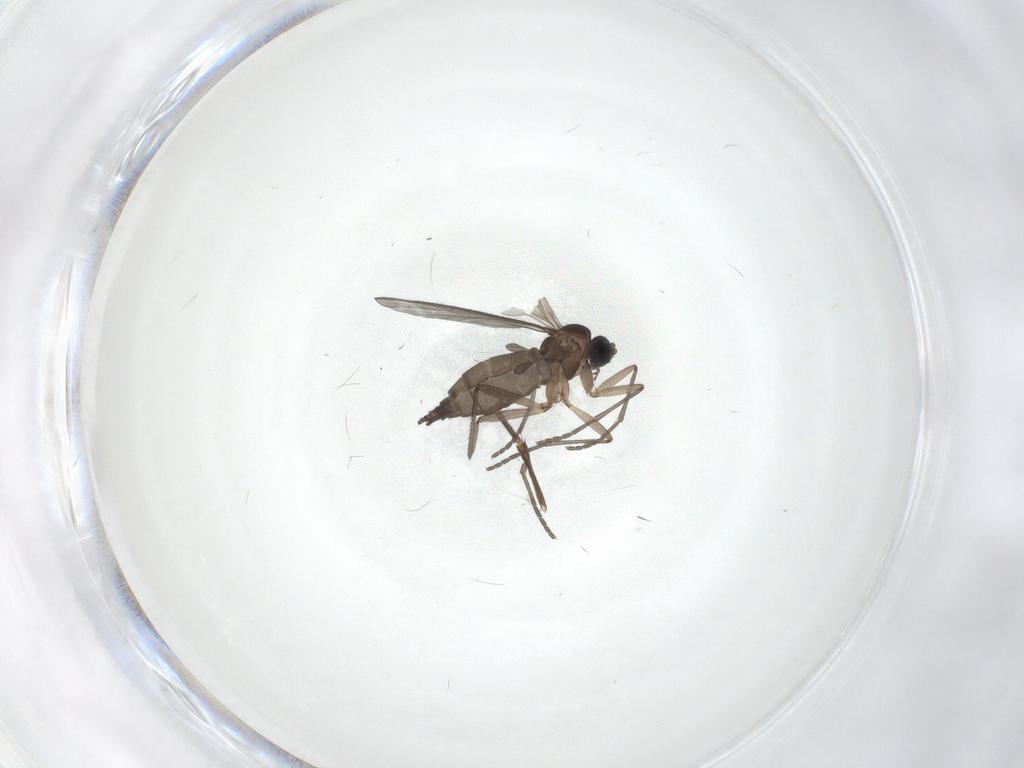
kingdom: Animalia
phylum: Arthropoda
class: Insecta
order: Diptera
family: Phoridae
